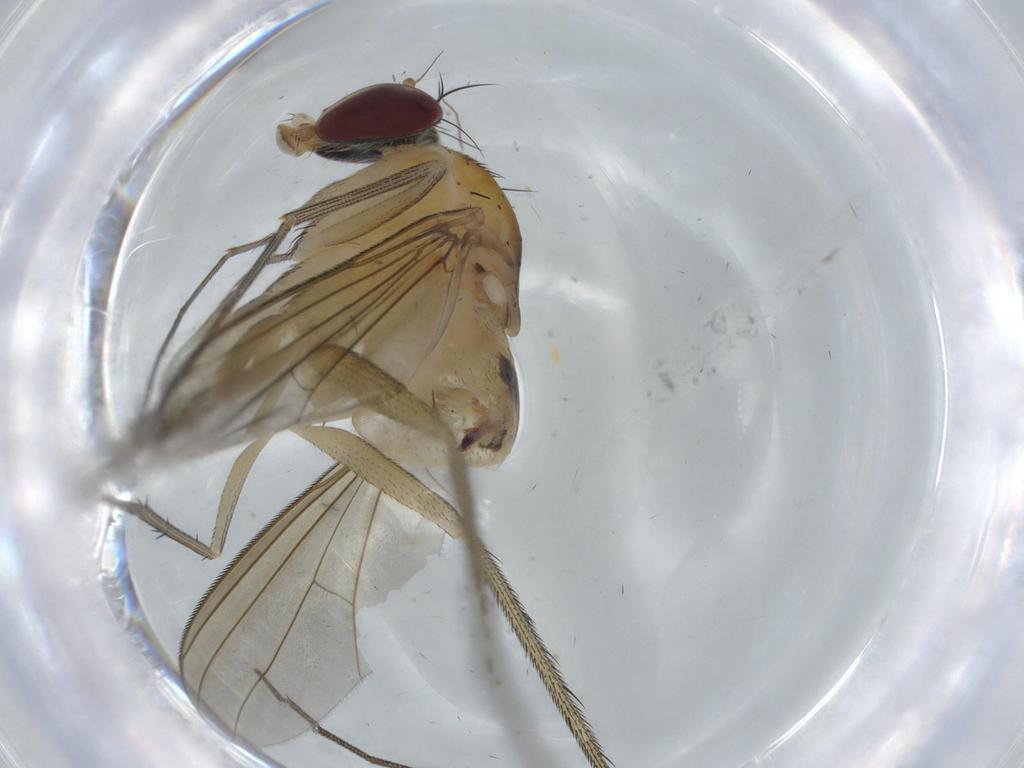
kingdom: Animalia
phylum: Arthropoda
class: Insecta
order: Diptera
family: Dolichopodidae
